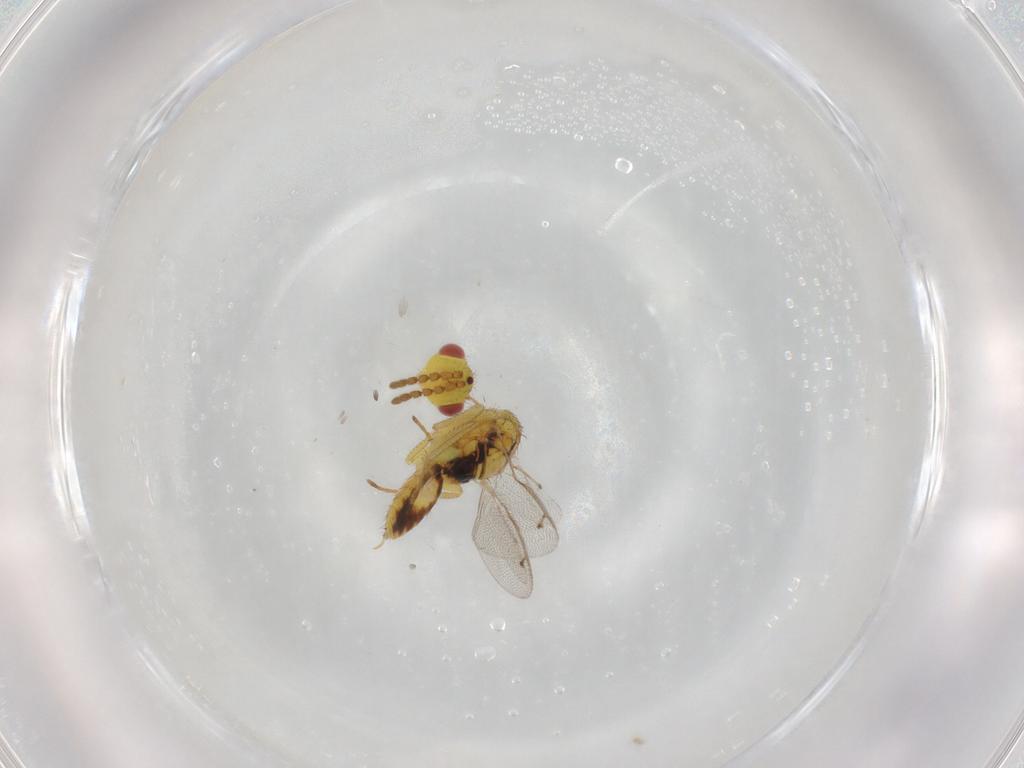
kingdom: Animalia
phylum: Arthropoda
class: Insecta
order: Hymenoptera
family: Eulophidae
